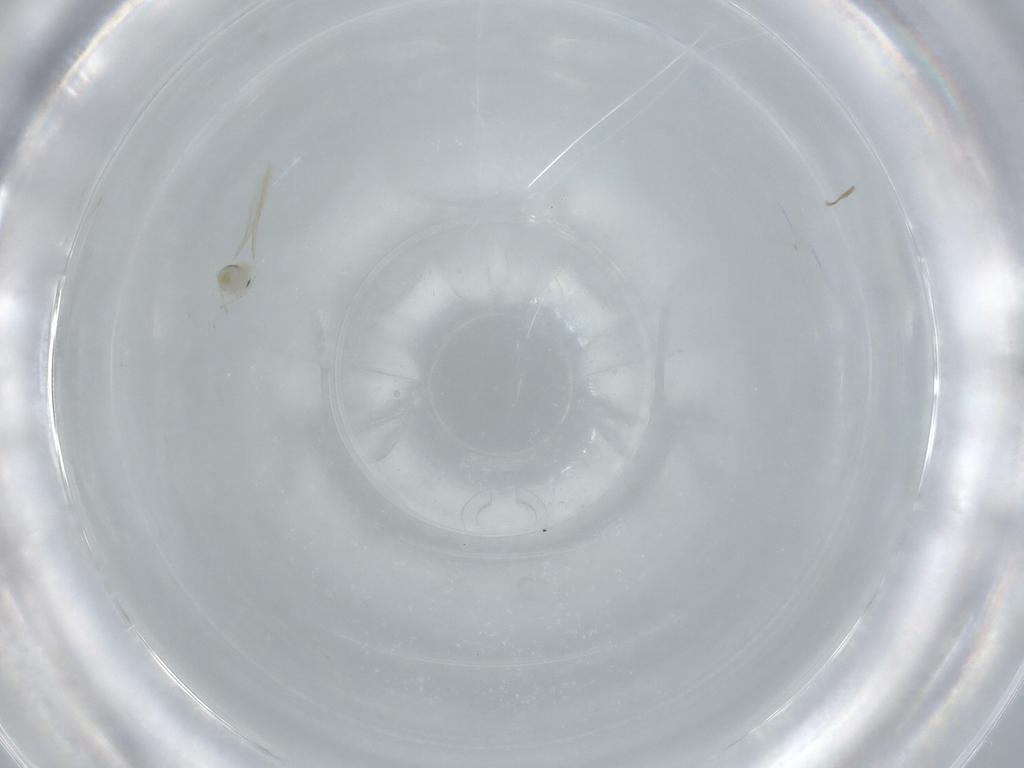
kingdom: Animalia
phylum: Arthropoda
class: Insecta
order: Diptera
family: Cecidomyiidae
